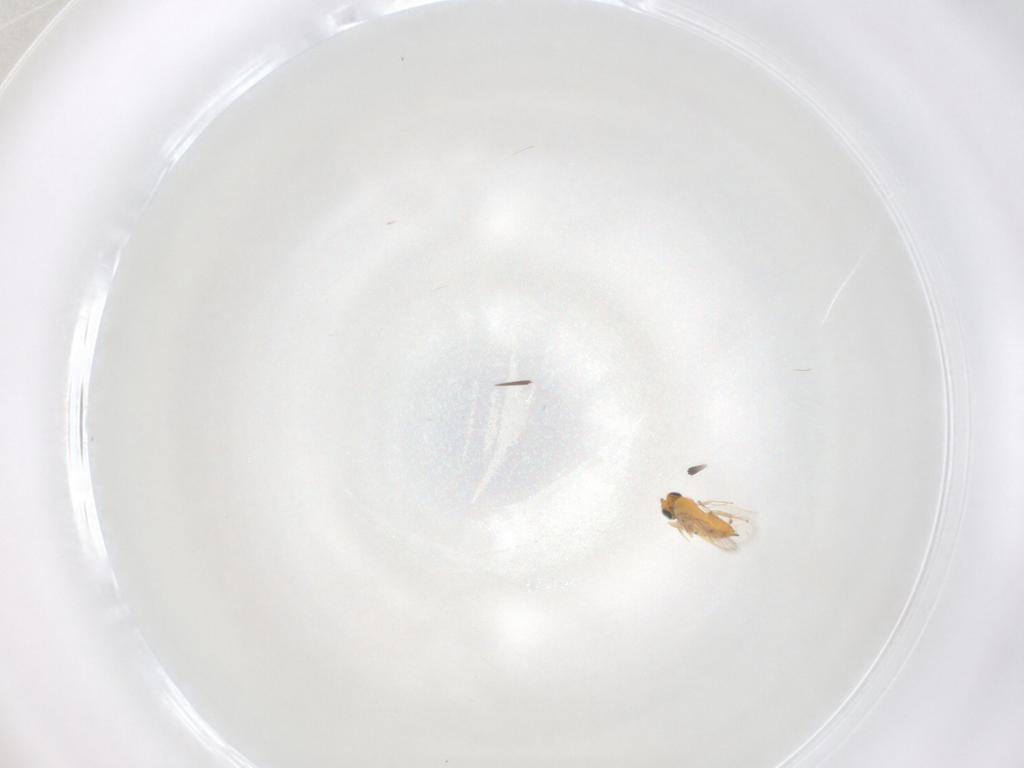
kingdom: Animalia
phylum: Arthropoda
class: Insecta
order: Hymenoptera
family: Trichogrammatidae
